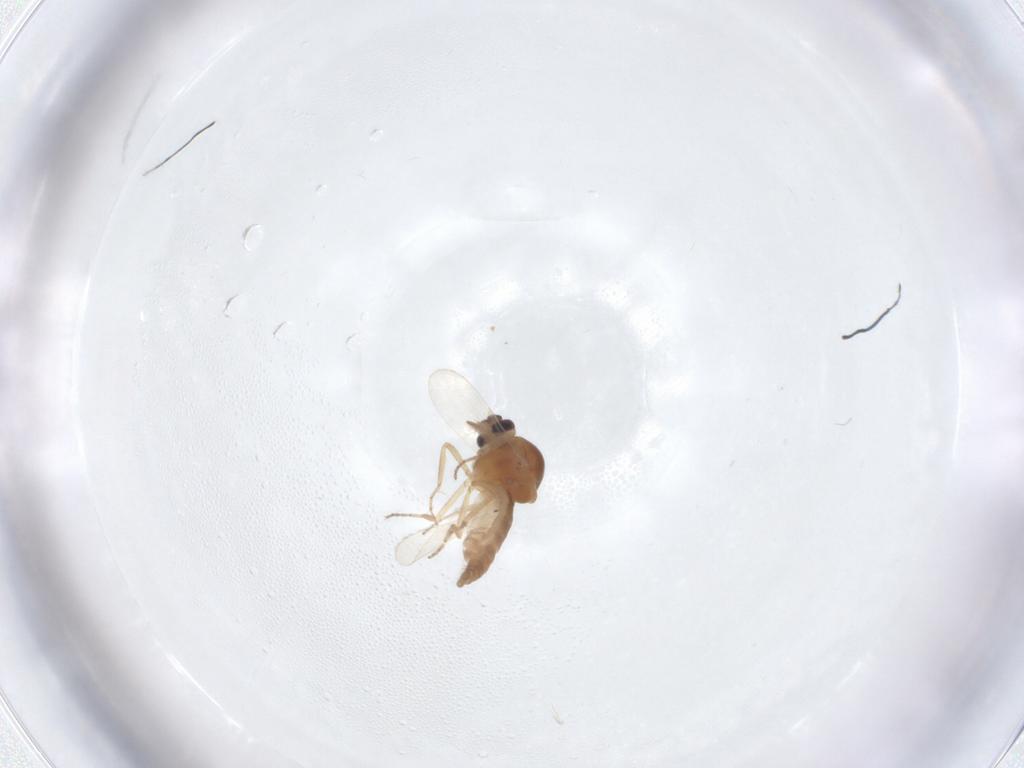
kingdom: Animalia
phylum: Arthropoda
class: Insecta
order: Diptera
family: Ceratopogonidae
